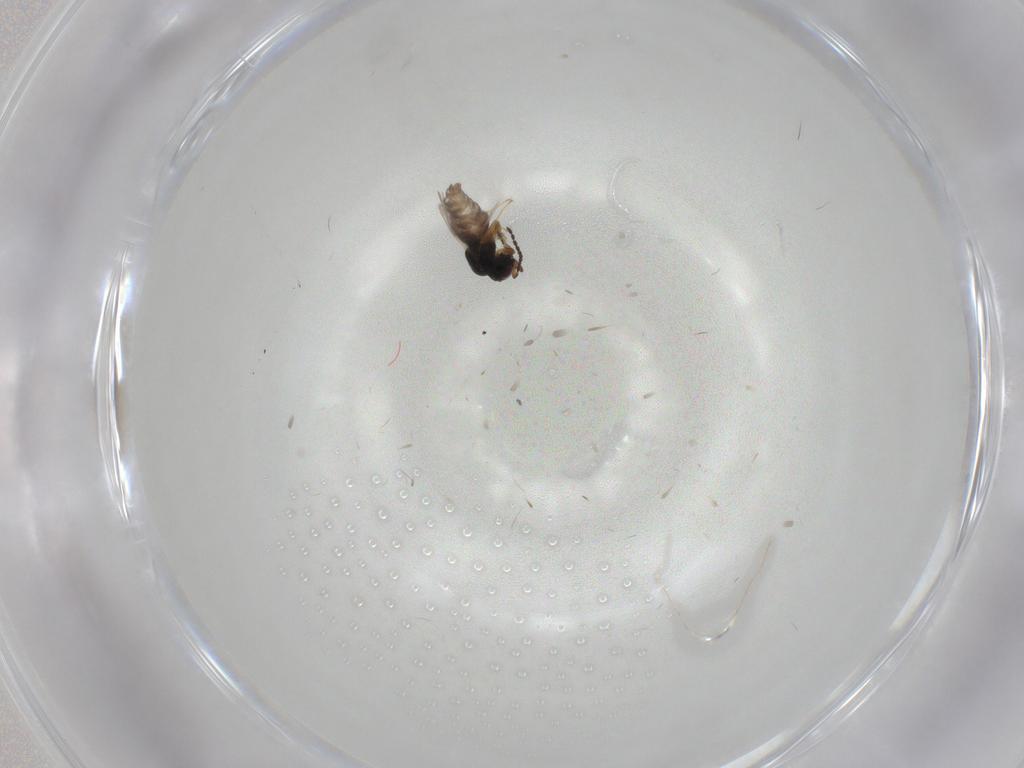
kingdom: Animalia
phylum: Arthropoda
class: Insecta
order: Hymenoptera
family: Ceraphronidae
